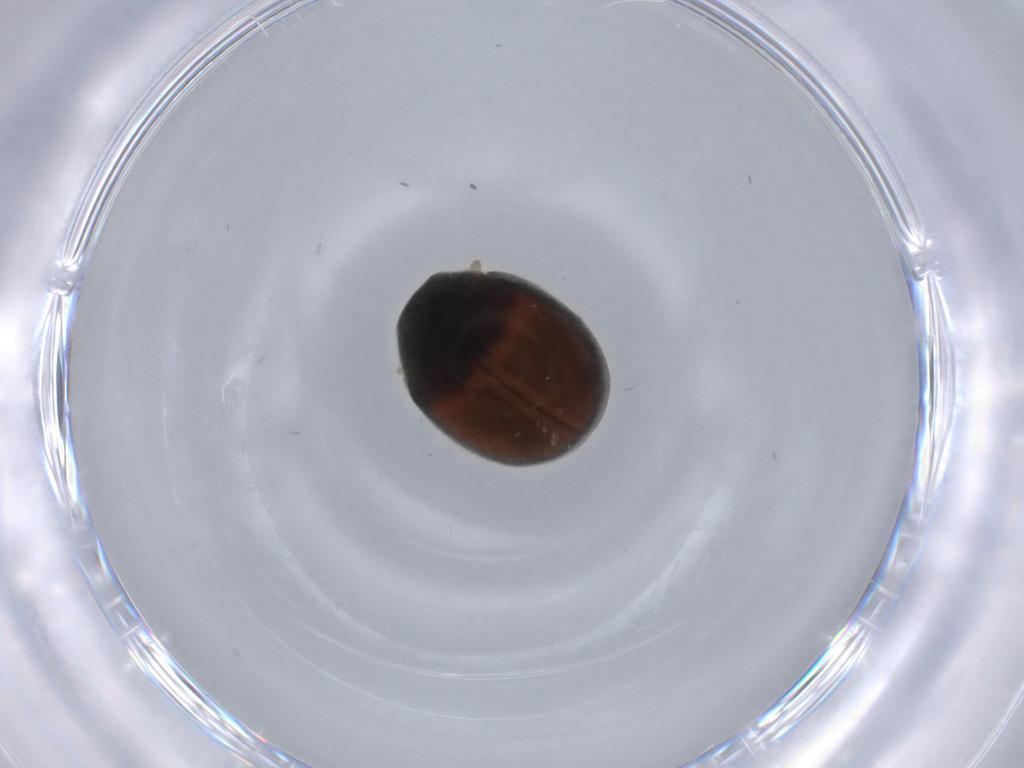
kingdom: Animalia
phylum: Arthropoda
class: Insecta
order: Coleoptera
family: Coccinellidae
